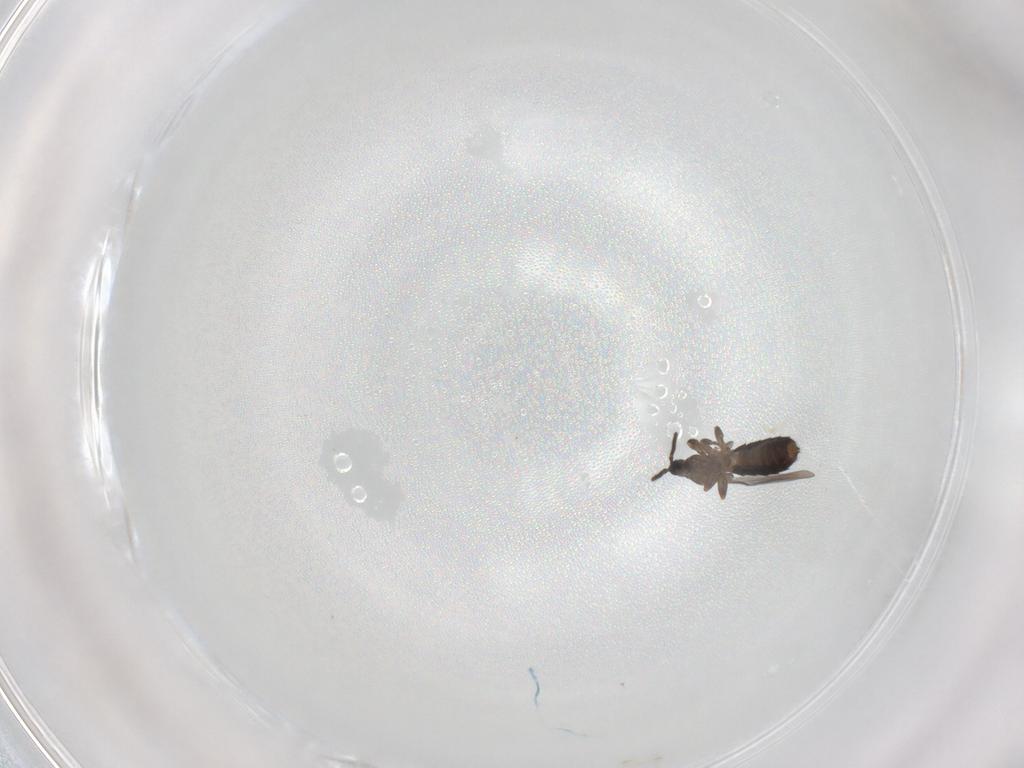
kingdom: Animalia
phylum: Arthropoda
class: Insecta
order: Diptera
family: Scatopsidae
